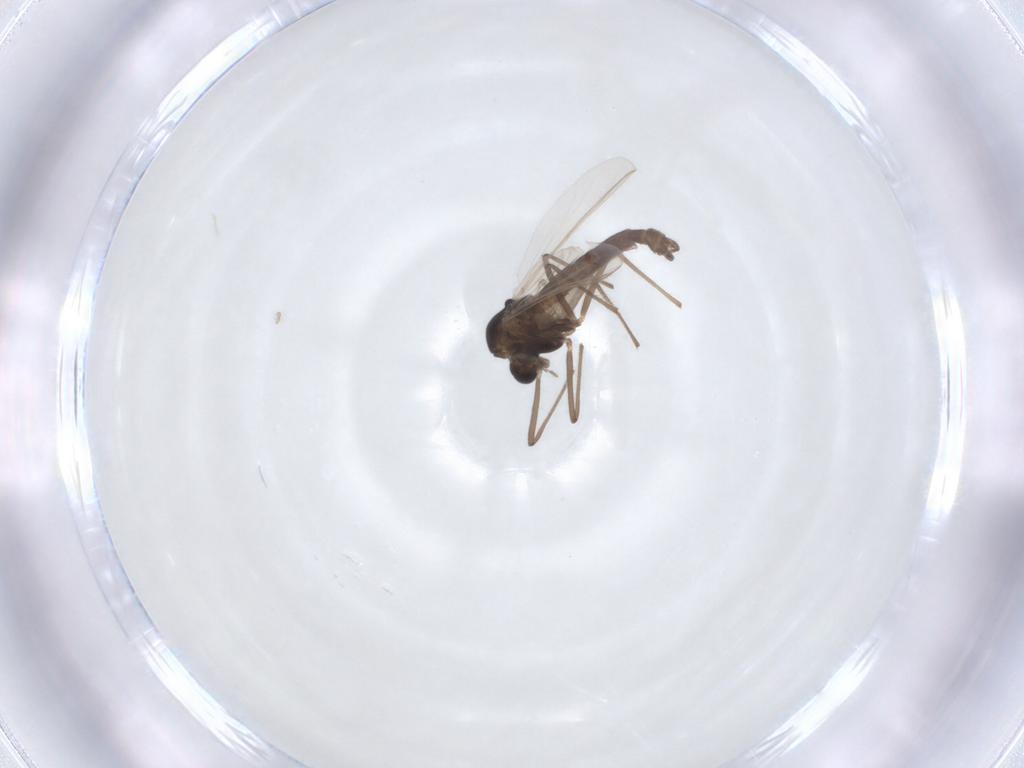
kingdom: Animalia
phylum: Arthropoda
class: Insecta
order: Diptera
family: Chironomidae
